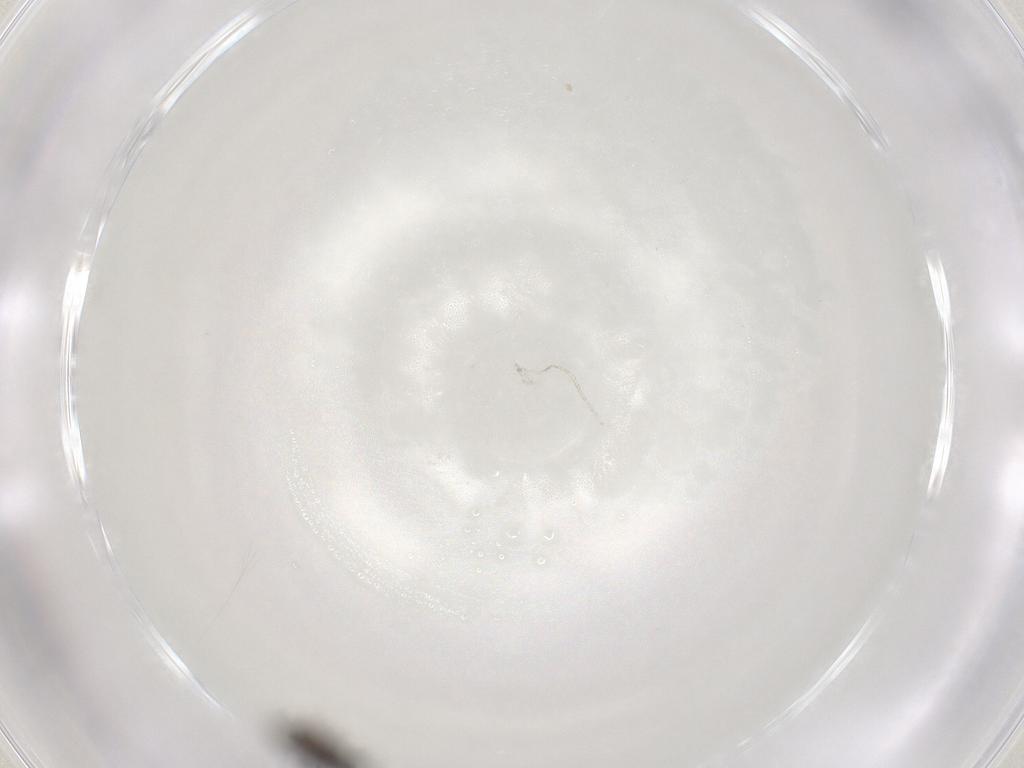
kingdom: Animalia
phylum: Arthropoda
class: Insecta
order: Diptera
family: Cecidomyiidae
